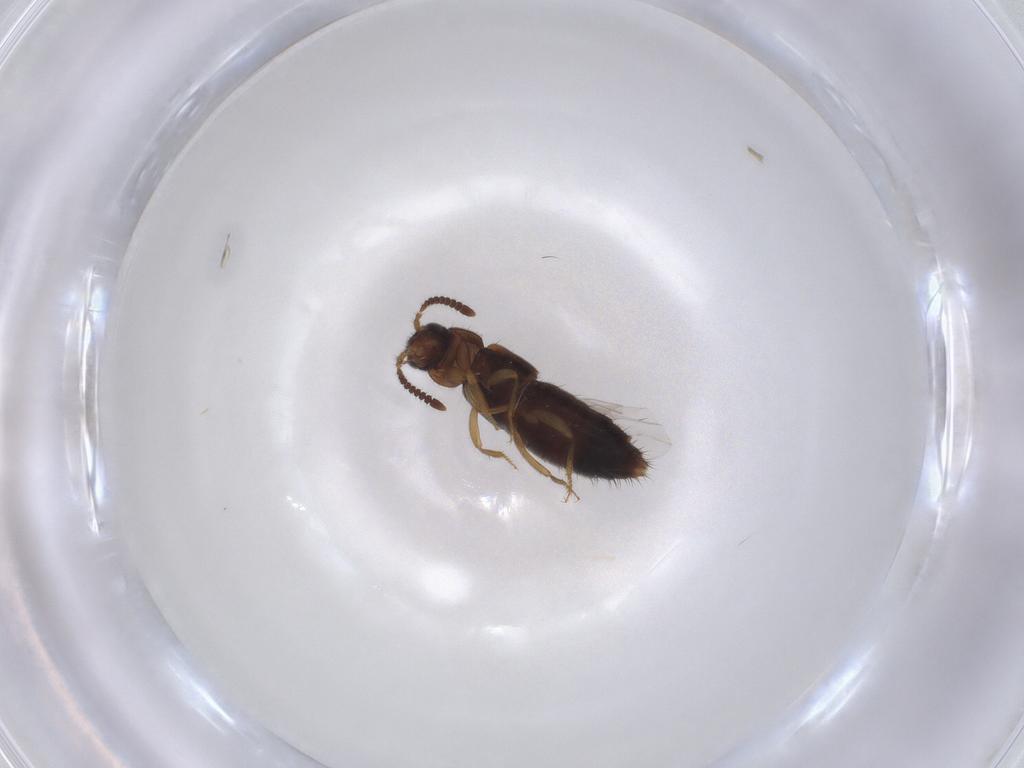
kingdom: Animalia
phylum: Arthropoda
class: Insecta
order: Coleoptera
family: Staphylinidae
